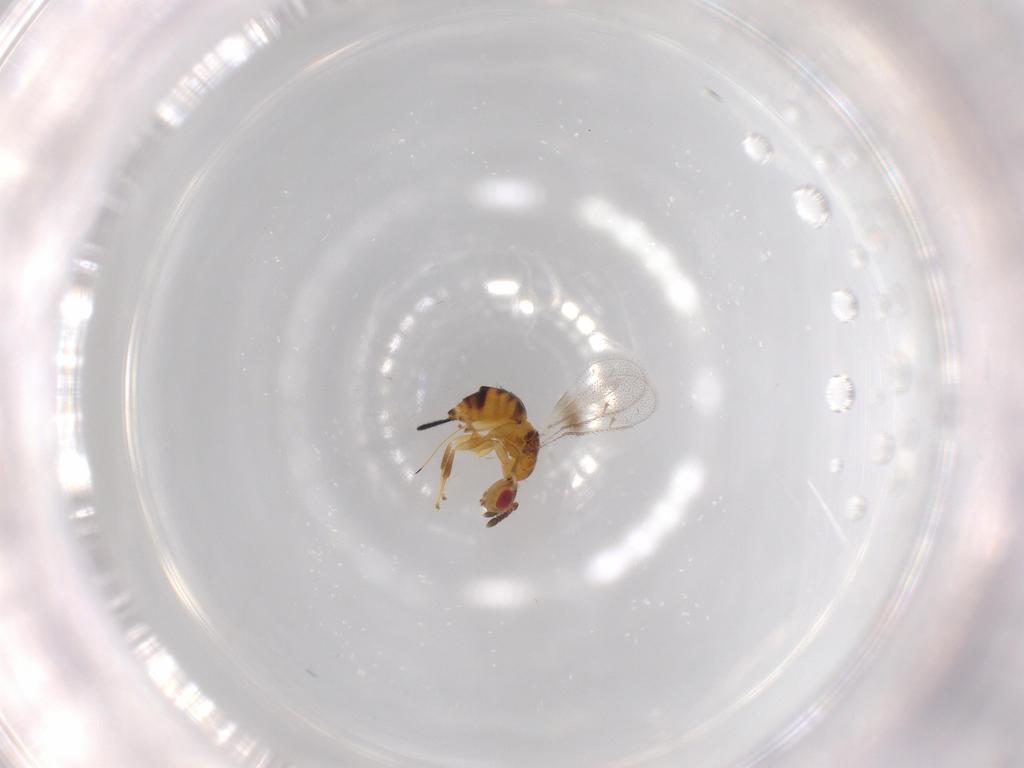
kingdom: Animalia
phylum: Arthropoda
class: Insecta
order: Hymenoptera
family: Torymidae
